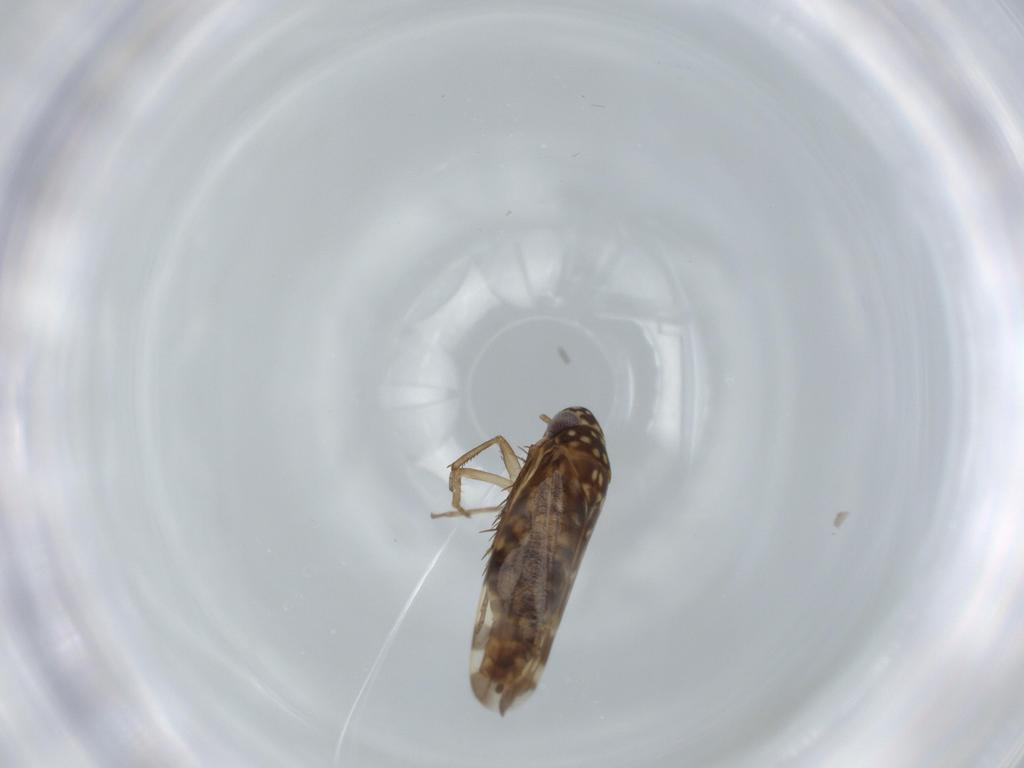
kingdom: Animalia
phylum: Arthropoda
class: Insecta
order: Hemiptera
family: Cicadellidae
